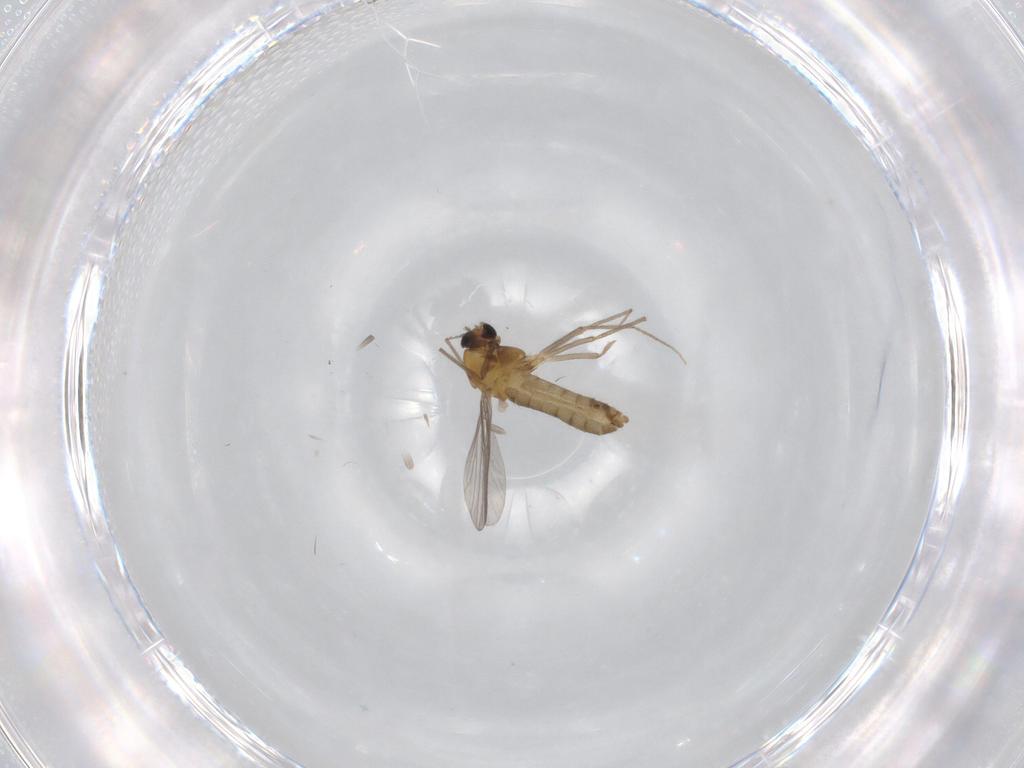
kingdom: Animalia
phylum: Arthropoda
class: Insecta
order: Diptera
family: Chironomidae
